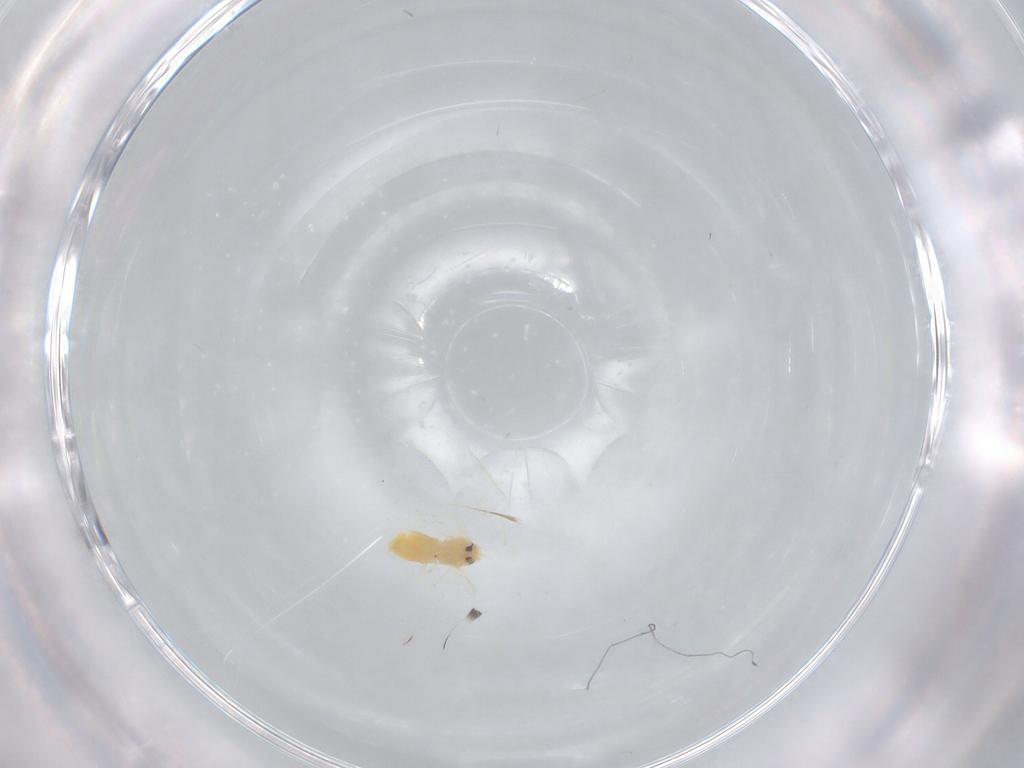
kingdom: Animalia
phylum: Arthropoda
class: Insecta
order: Hemiptera
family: Aleyrodidae
